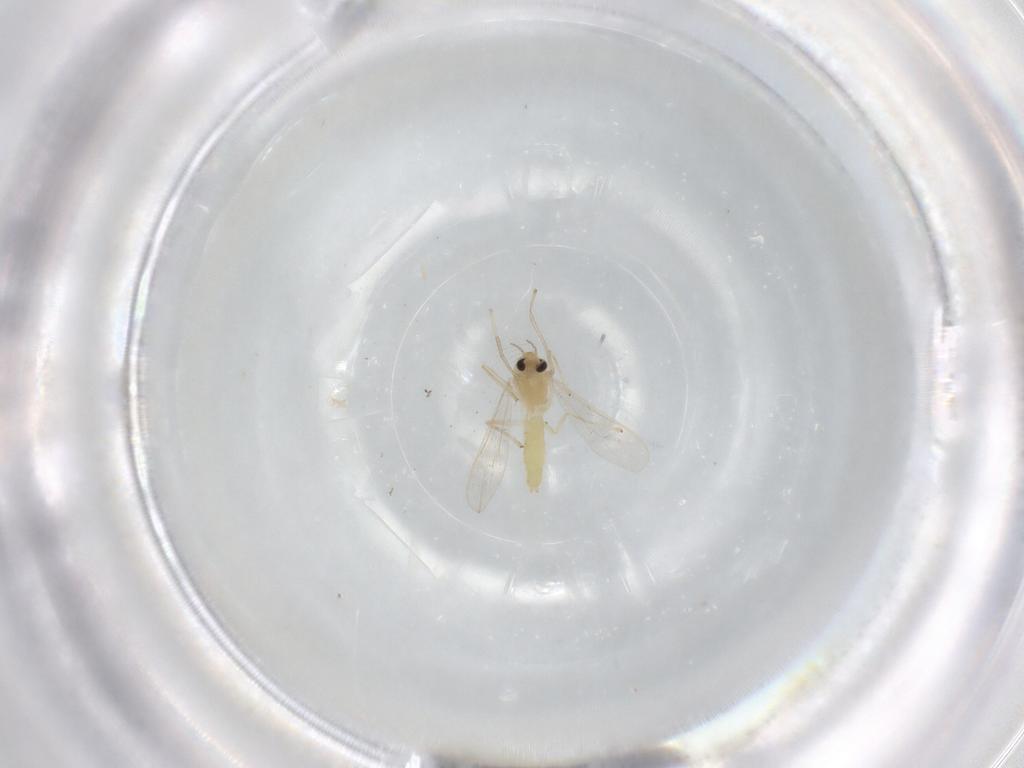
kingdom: Animalia
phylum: Arthropoda
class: Insecta
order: Diptera
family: Chironomidae
